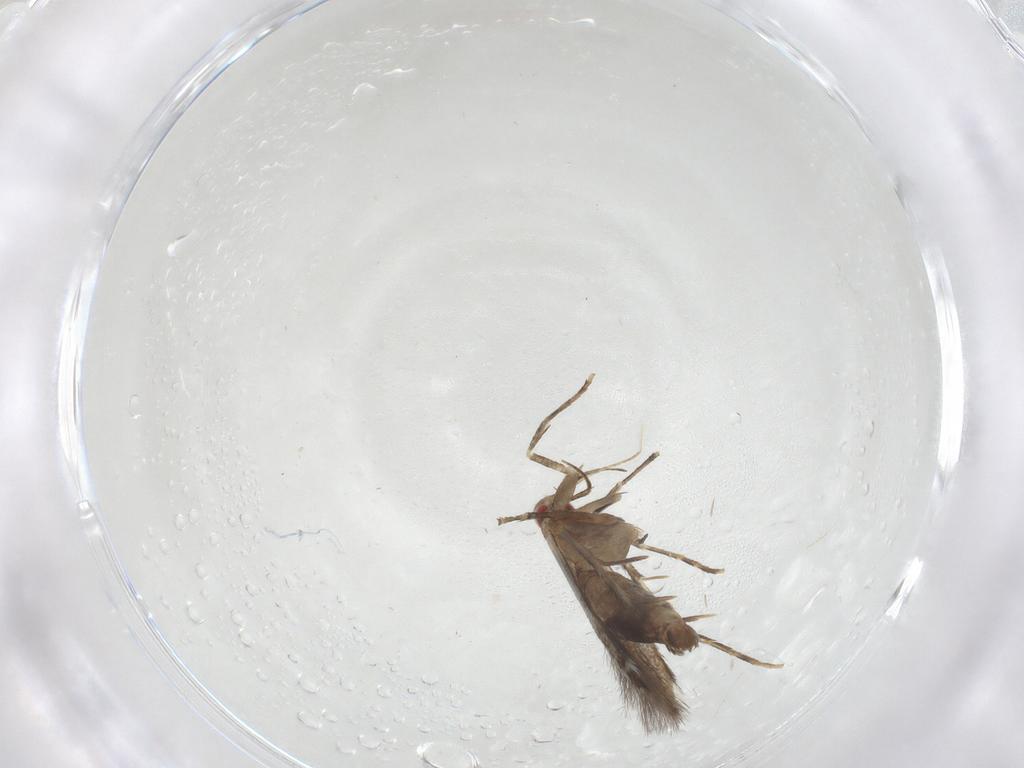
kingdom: Animalia
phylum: Arthropoda
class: Insecta
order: Lepidoptera
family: Cosmopterigidae
